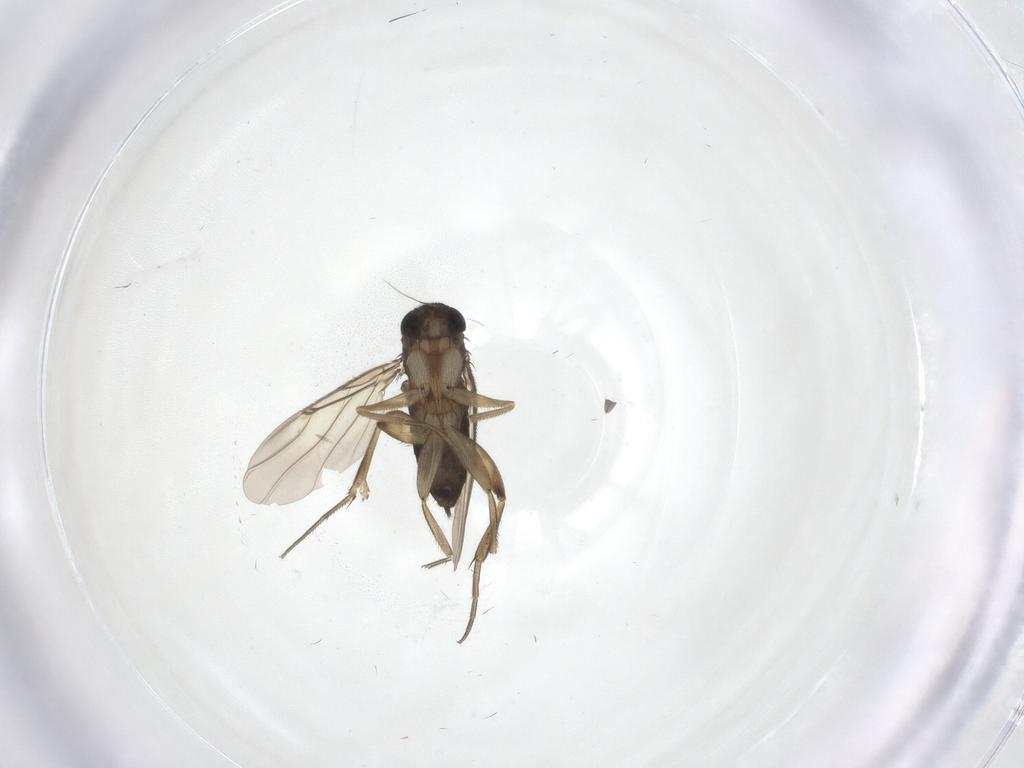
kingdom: Animalia
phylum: Arthropoda
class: Insecta
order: Diptera
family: Phoridae
